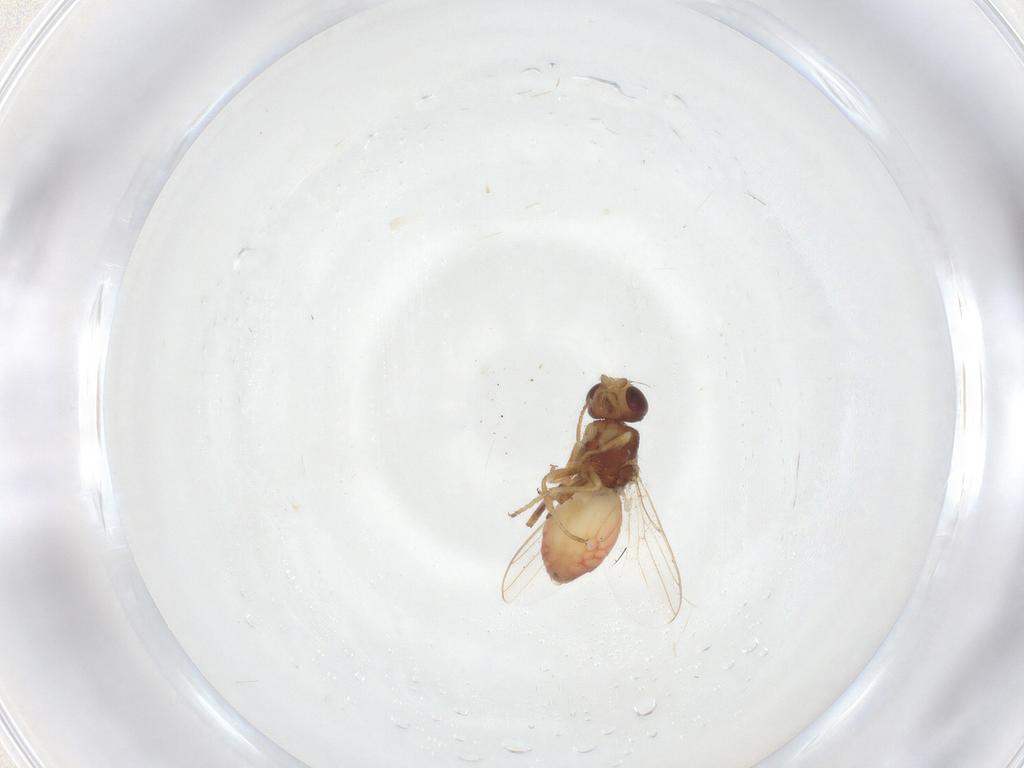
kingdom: Animalia
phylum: Arthropoda
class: Insecta
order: Diptera
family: Chloropidae
